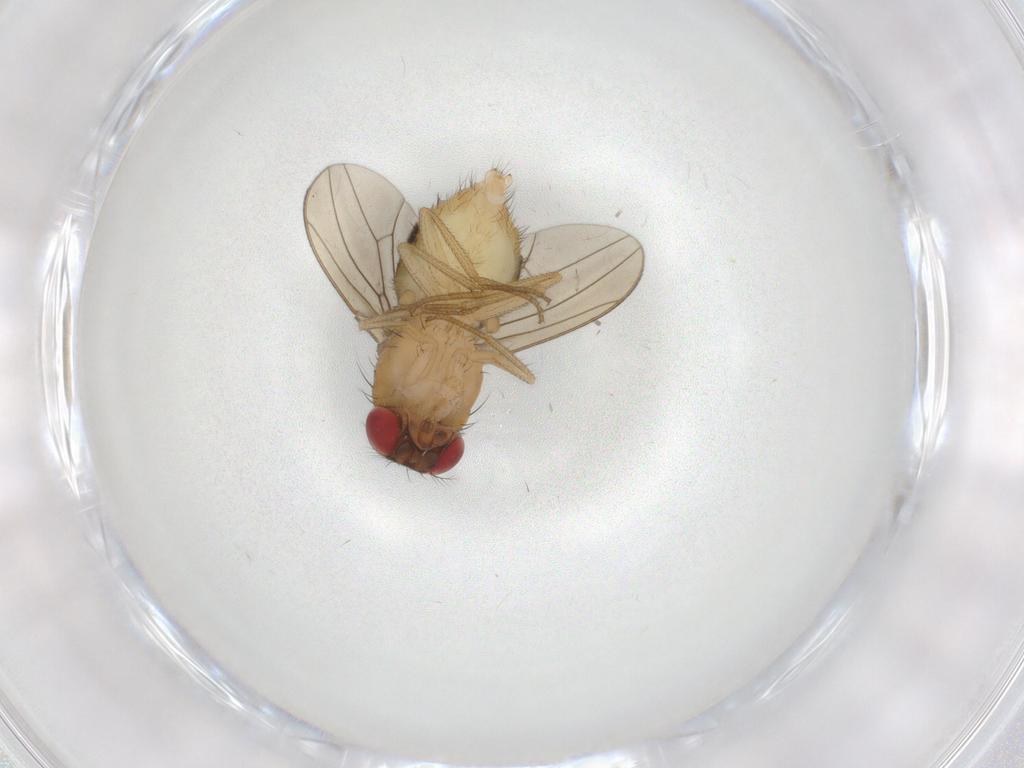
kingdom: Animalia
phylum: Arthropoda
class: Insecta
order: Diptera
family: Drosophilidae
